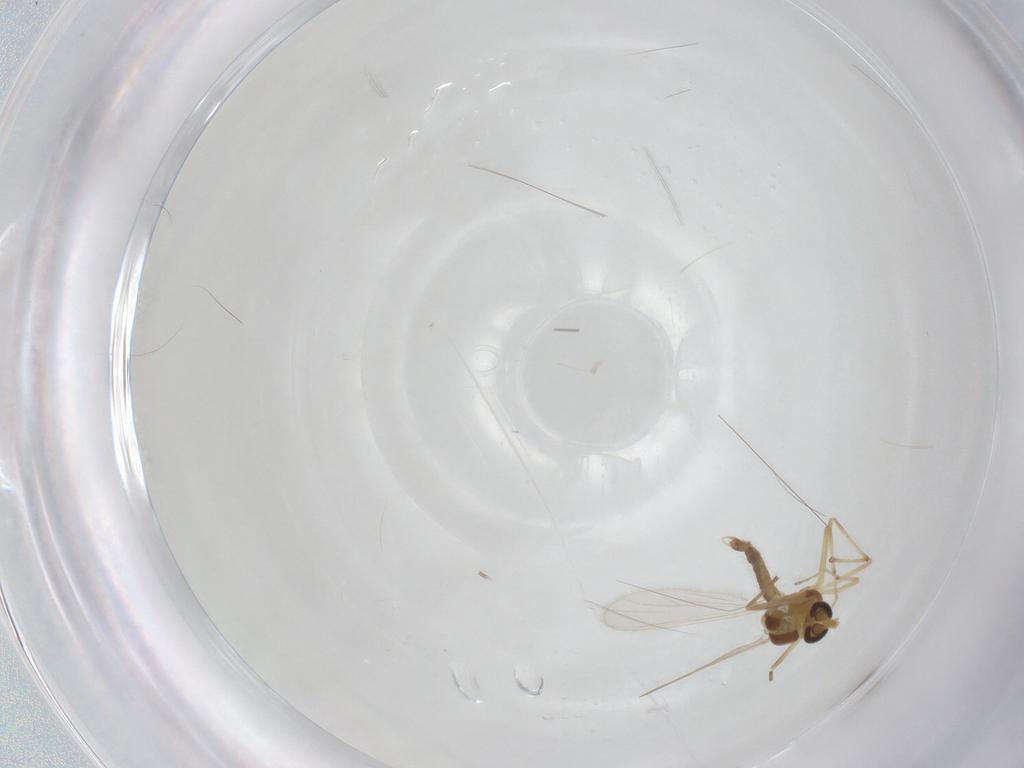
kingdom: Animalia
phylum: Arthropoda
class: Insecta
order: Diptera
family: Chironomidae
